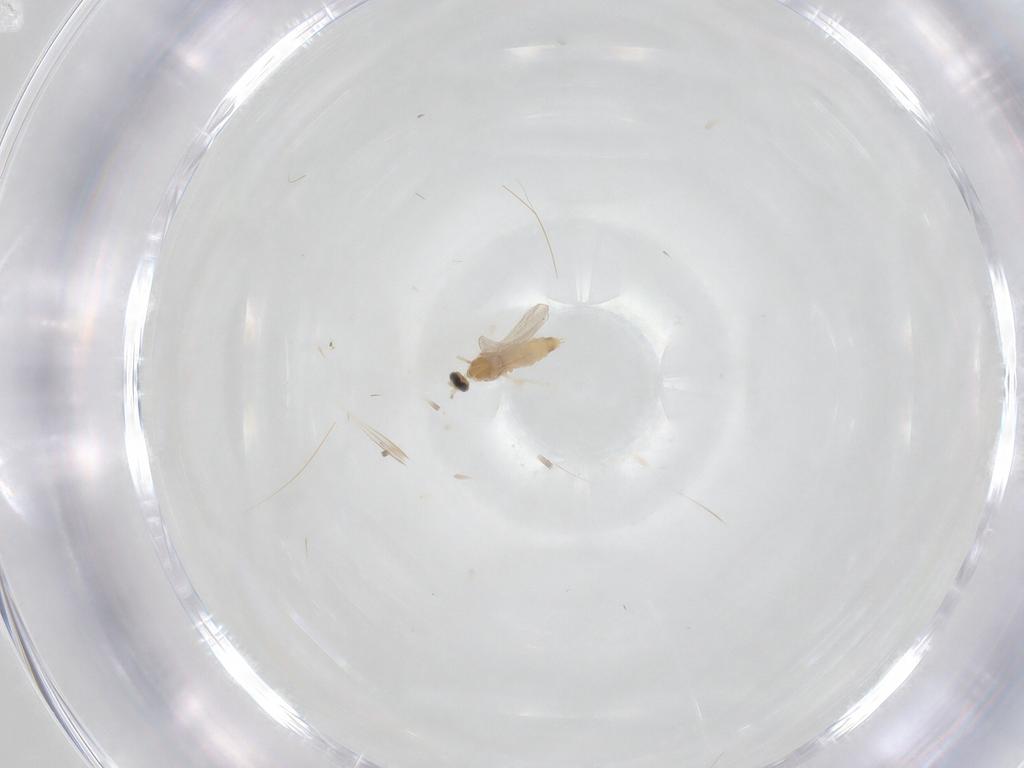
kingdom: Animalia
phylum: Arthropoda
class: Insecta
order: Diptera
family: Cecidomyiidae
